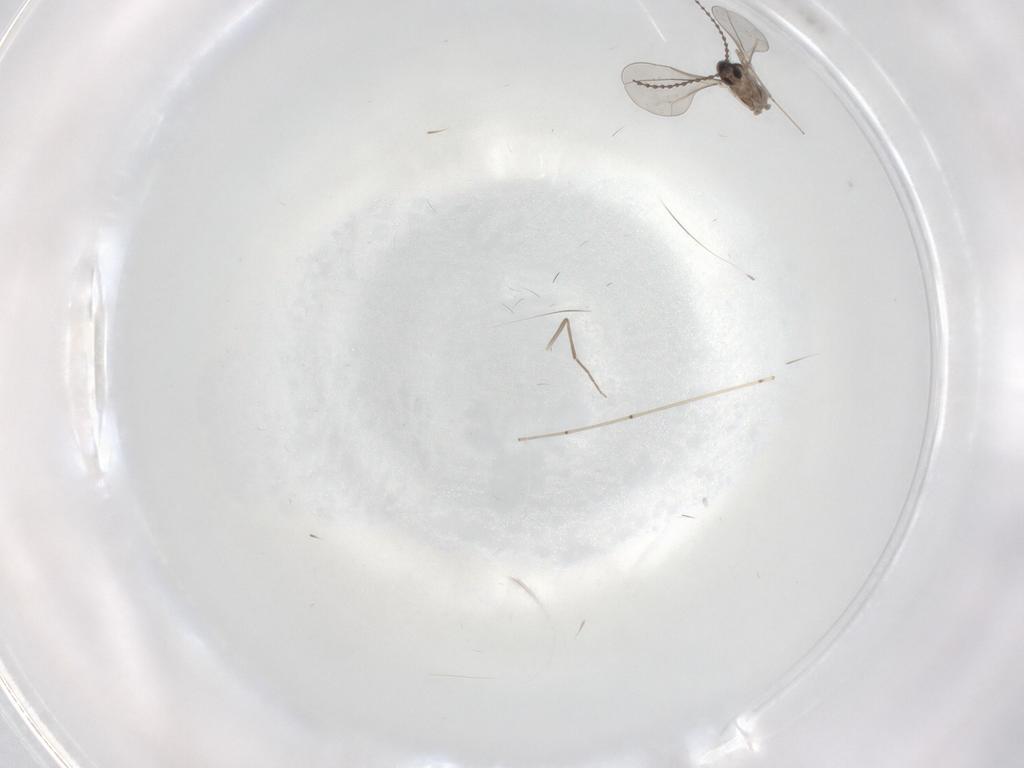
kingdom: Animalia
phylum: Arthropoda
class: Insecta
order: Diptera
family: Cecidomyiidae
